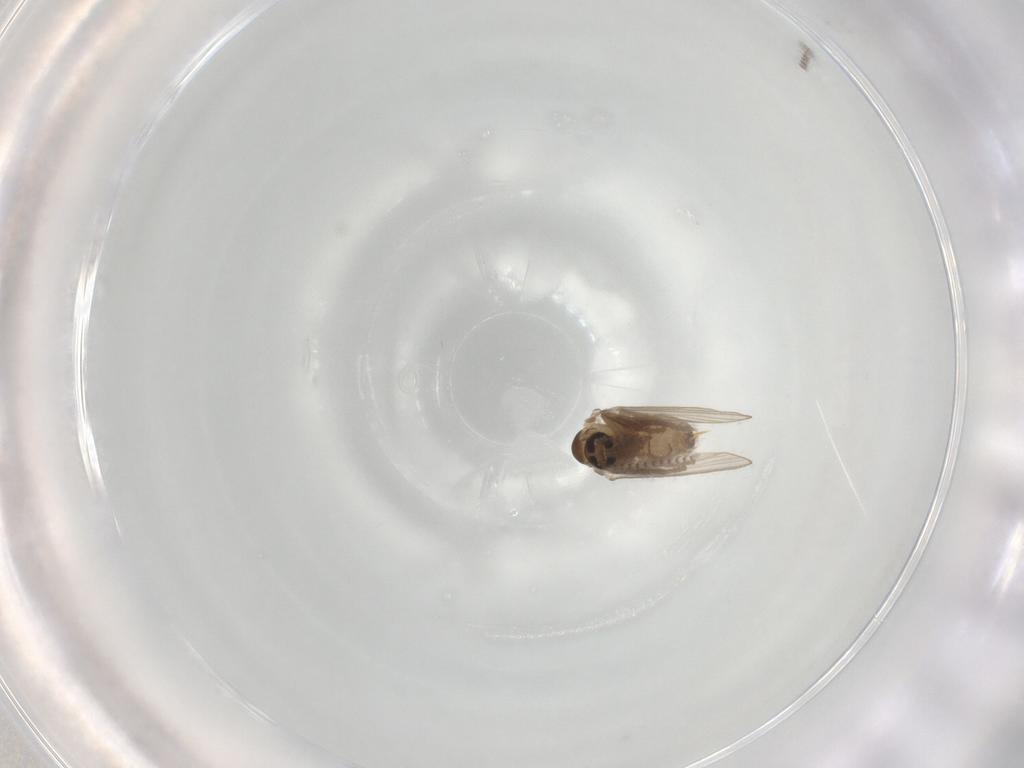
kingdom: Animalia
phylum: Arthropoda
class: Insecta
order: Diptera
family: Psychodidae
